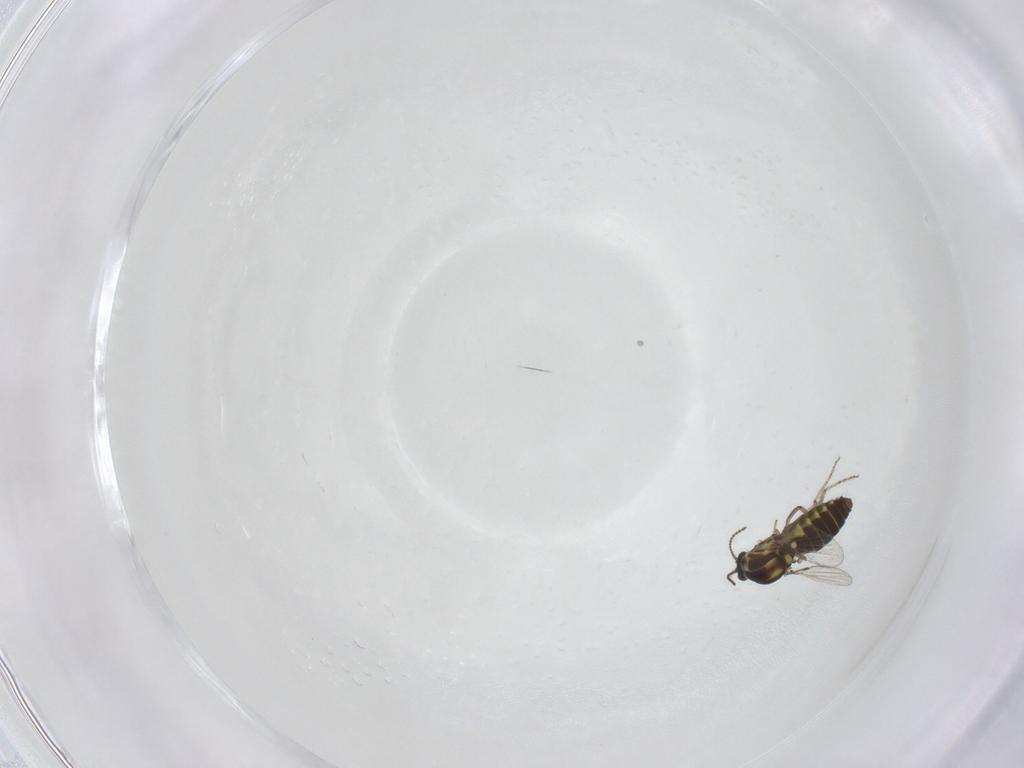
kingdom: Animalia
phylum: Arthropoda
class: Insecta
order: Diptera
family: Ceratopogonidae
